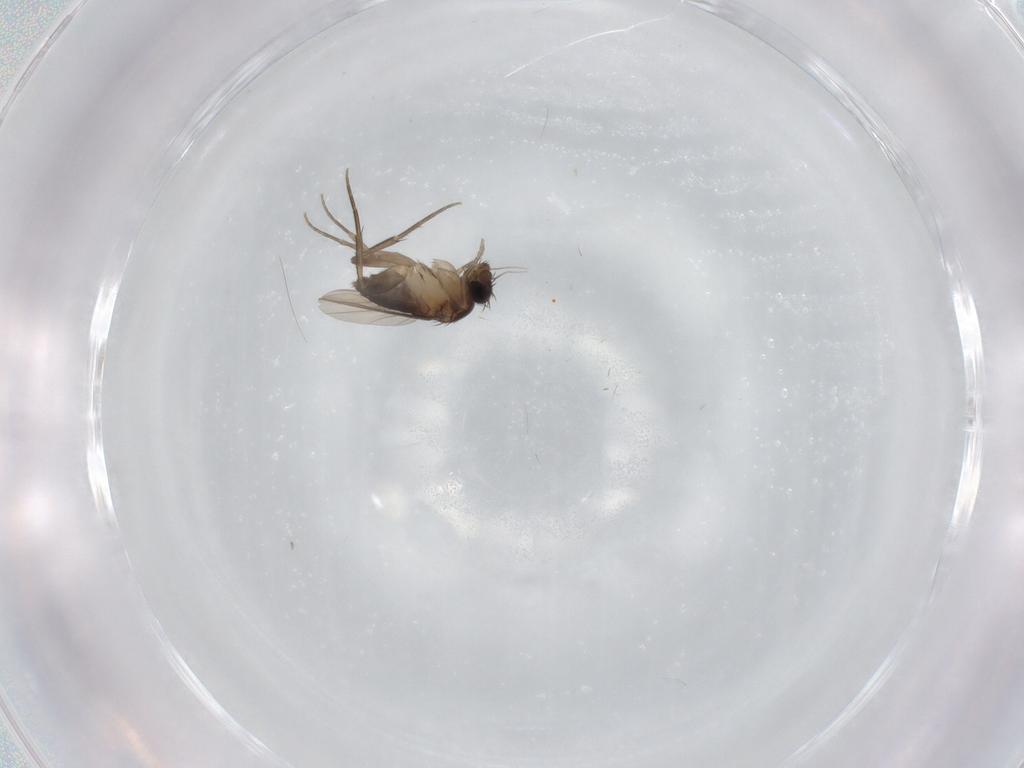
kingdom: Animalia
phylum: Arthropoda
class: Insecta
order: Diptera
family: Phoridae
